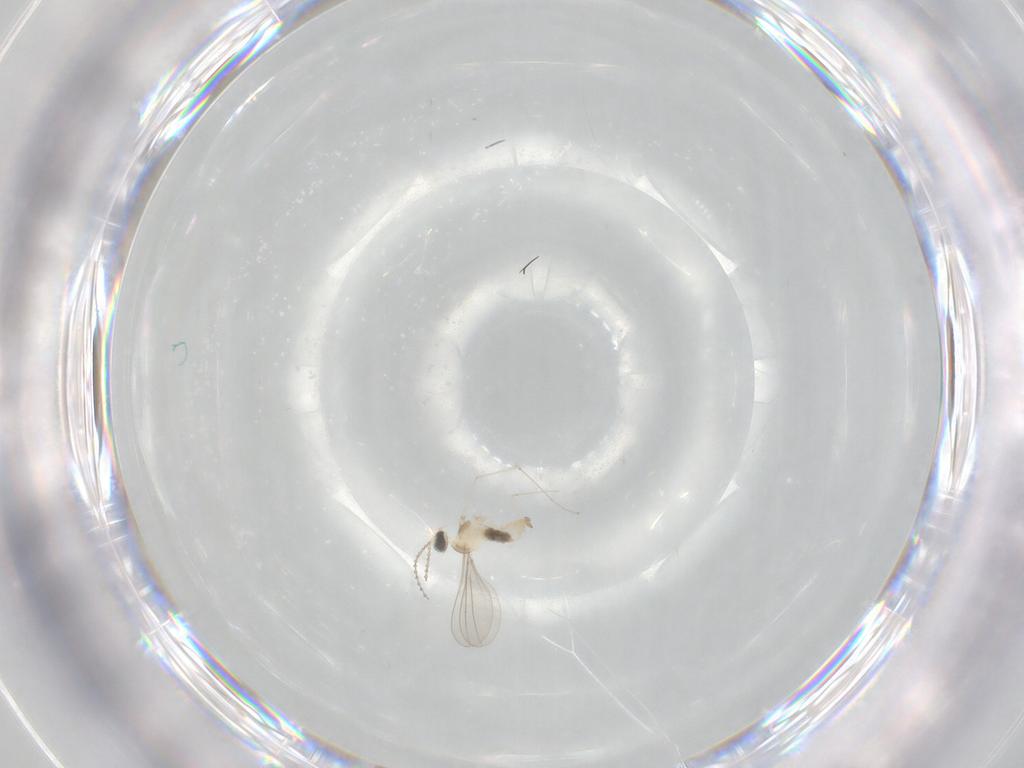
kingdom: Animalia
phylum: Arthropoda
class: Insecta
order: Diptera
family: Cecidomyiidae
